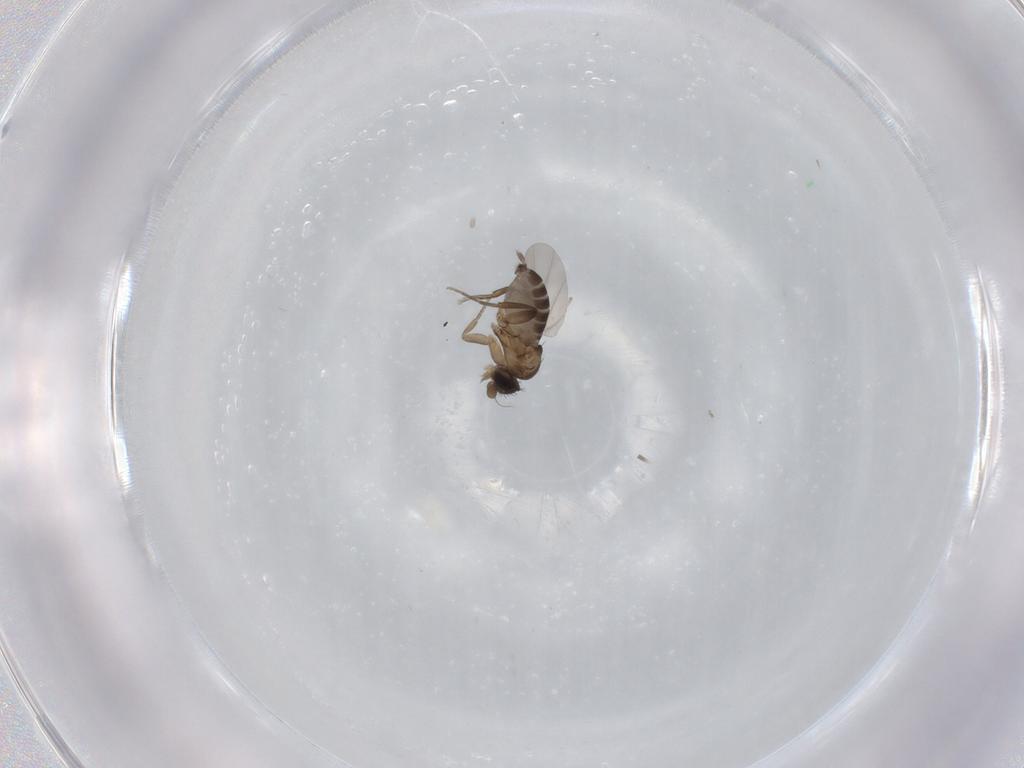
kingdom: Animalia
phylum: Arthropoda
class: Insecta
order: Diptera
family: Phoridae
